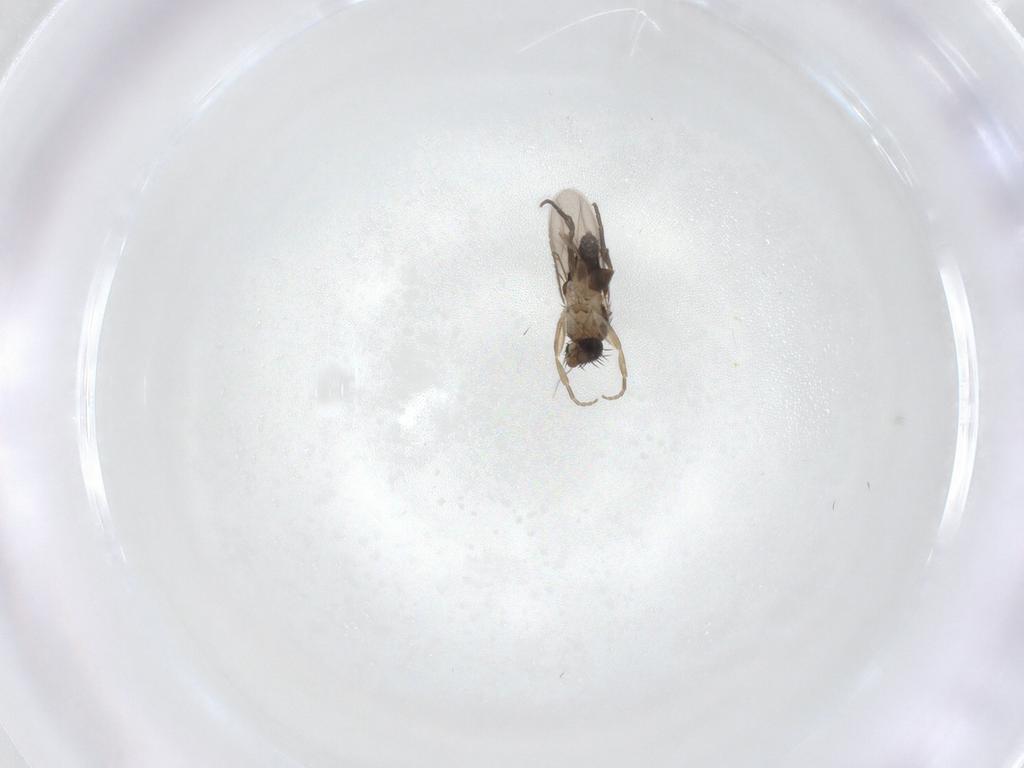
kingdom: Animalia
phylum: Arthropoda
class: Insecta
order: Diptera
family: Phoridae
